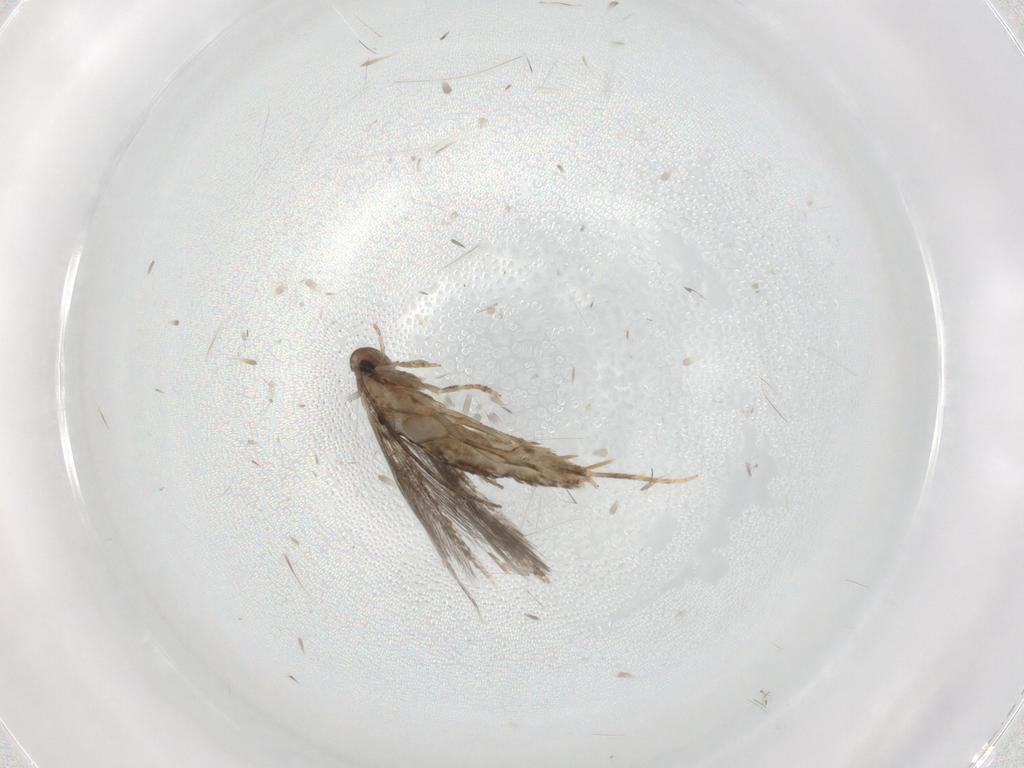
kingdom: Animalia
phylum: Arthropoda
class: Insecta
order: Lepidoptera
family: Elachistidae
